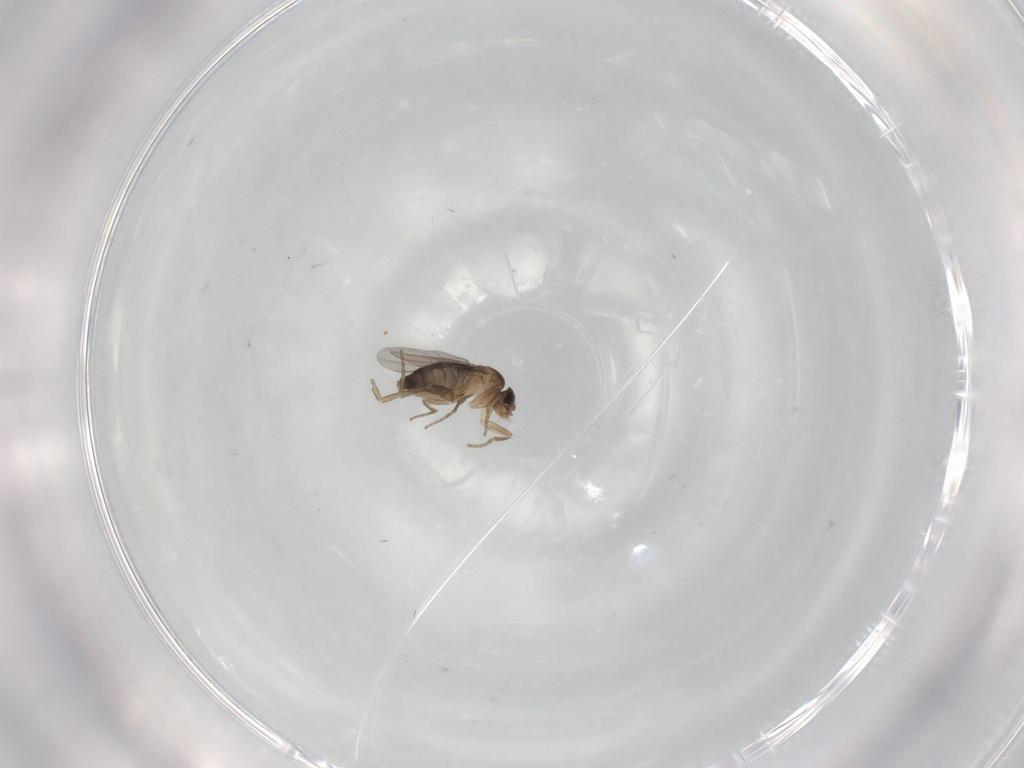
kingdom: Animalia
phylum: Arthropoda
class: Insecta
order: Diptera
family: Phoridae
